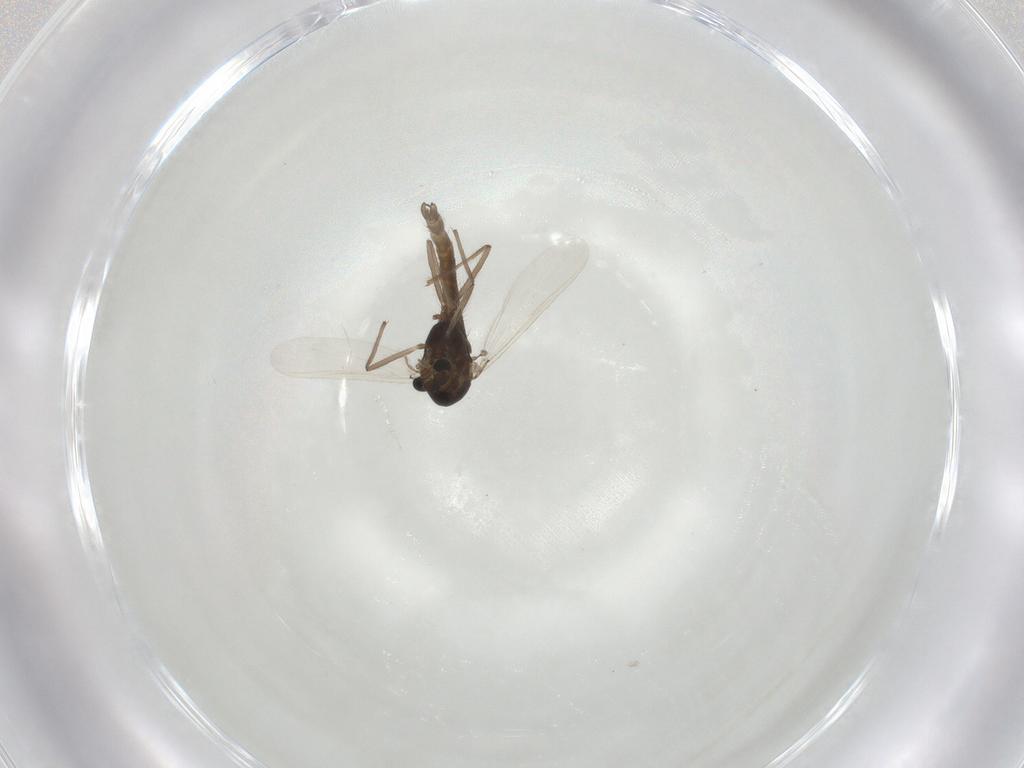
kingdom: Animalia
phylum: Arthropoda
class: Insecta
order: Diptera
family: Chironomidae
